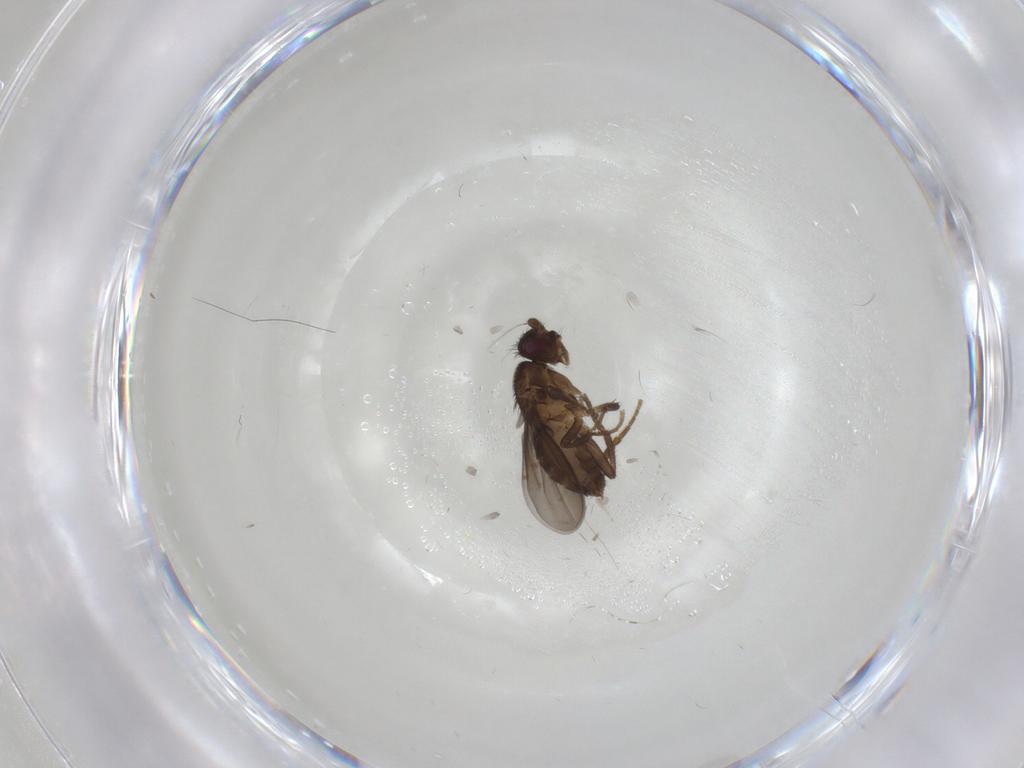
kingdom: Animalia
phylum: Arthropoda
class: Insecta
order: Diptera
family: Sphaeroceridae
